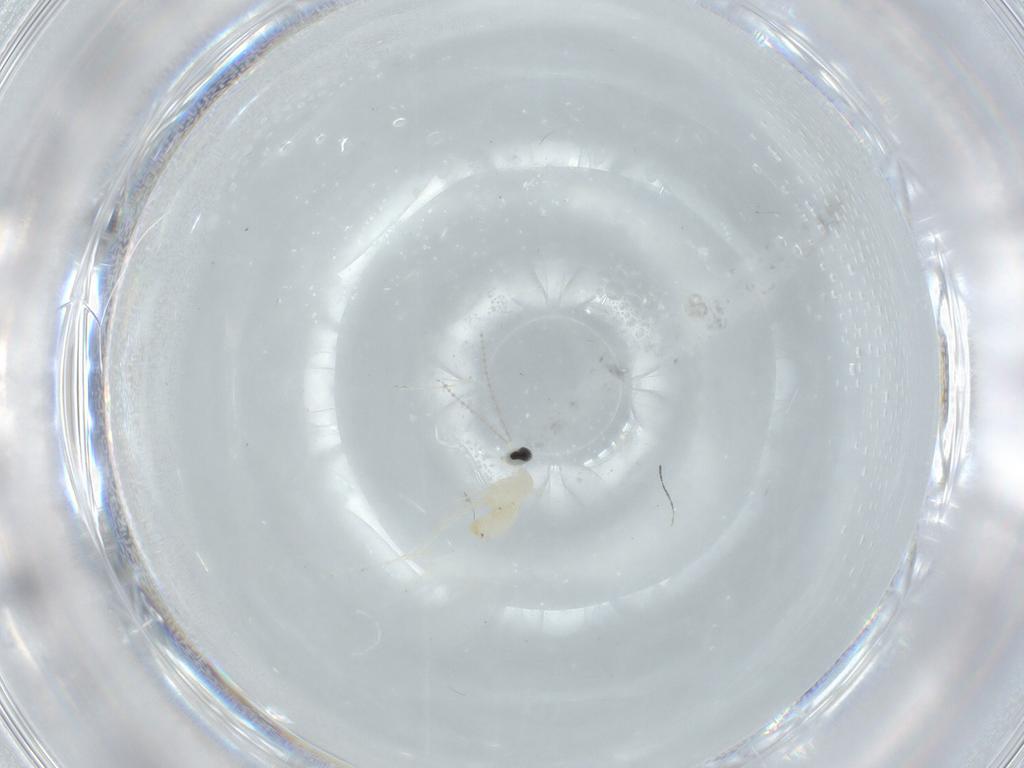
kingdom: Animalia
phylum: Arthropoda
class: Insecta
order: Diptera
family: Cecidomyiidae
